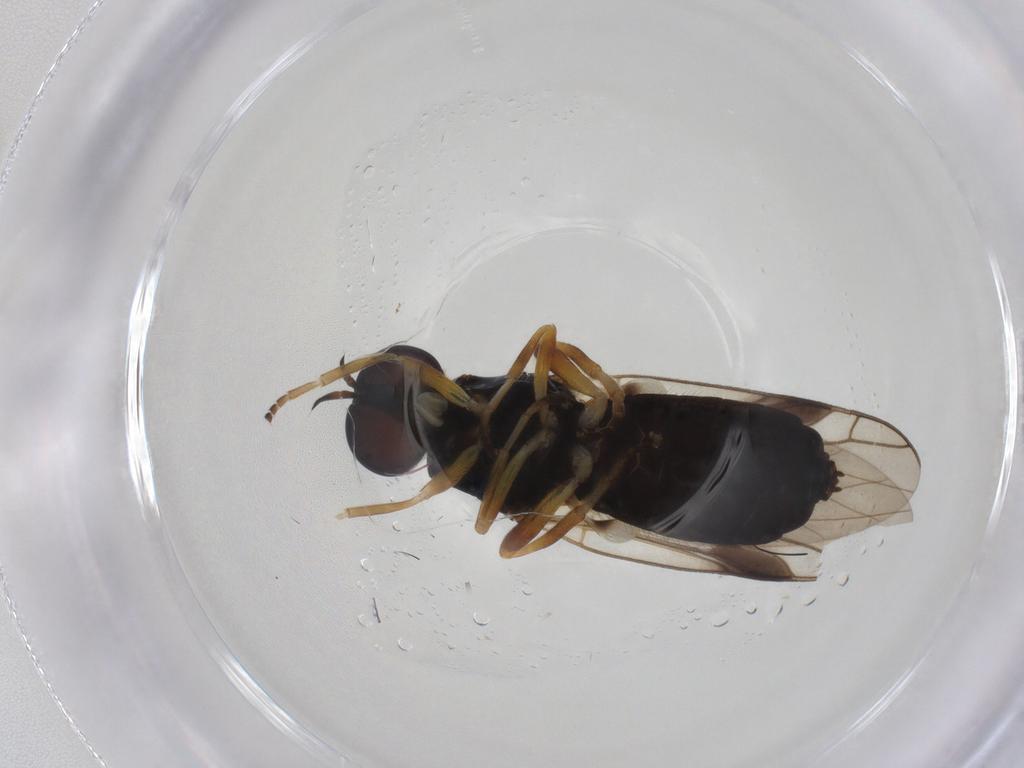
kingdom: Animalia
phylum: Arthropoda
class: Insecta
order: Diptera
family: Stratiomyidae
